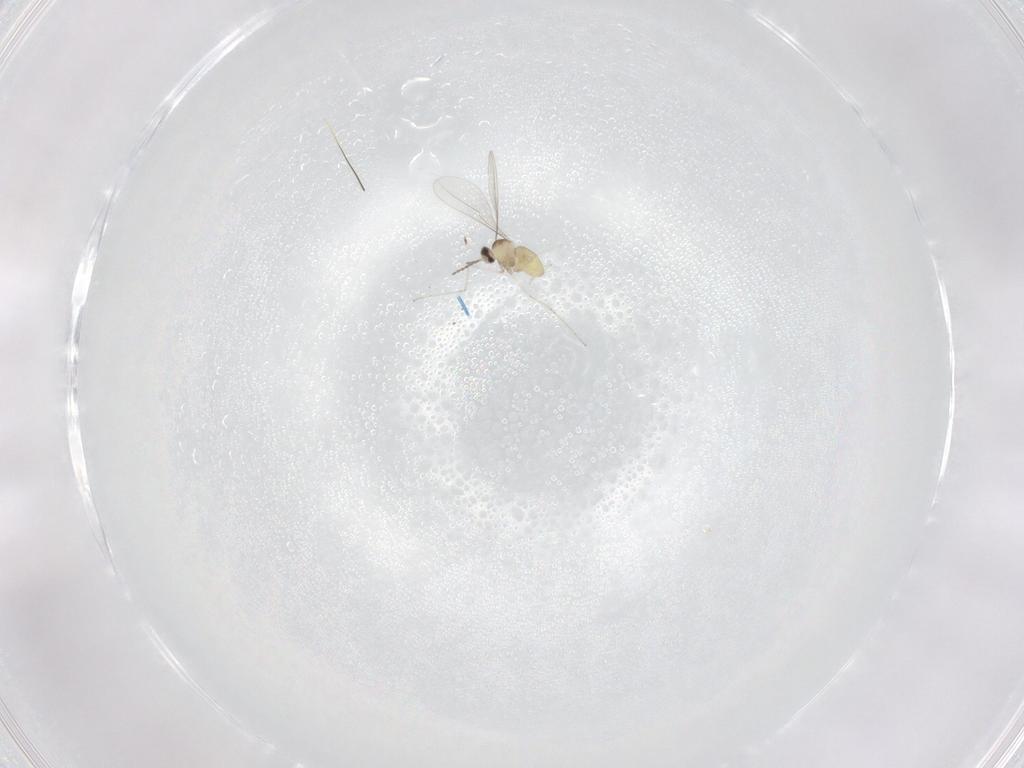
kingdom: Animalia
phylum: Arthropoda
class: Insecta
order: Diptera
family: Cecidomyiidae
